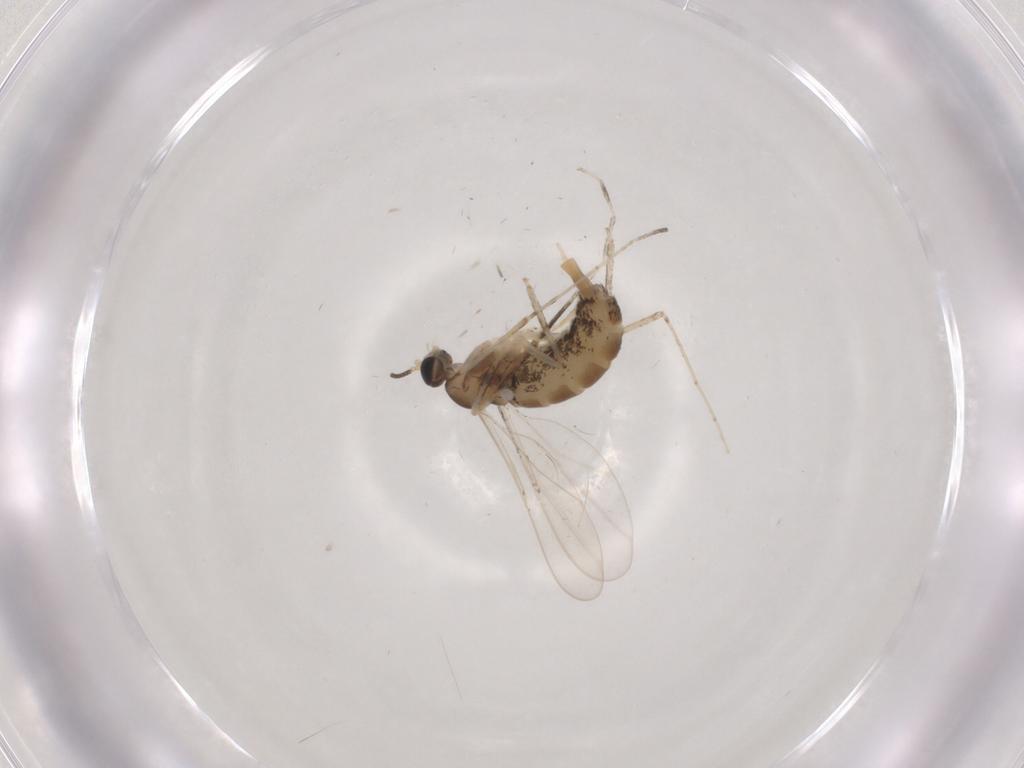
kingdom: Animalia
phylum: Arthropoda
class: Insecta
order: Diptera
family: Cecidomyiidae
